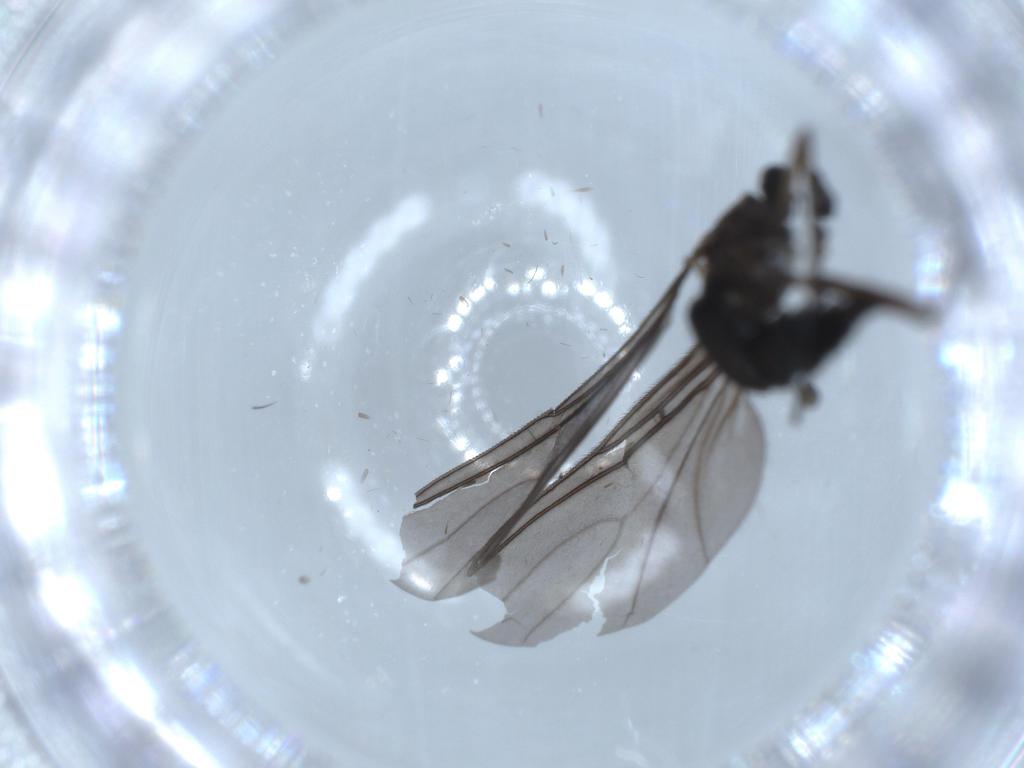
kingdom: Animalia
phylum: Arthropoda
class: Insecta
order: Diptera
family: Sciaridae
